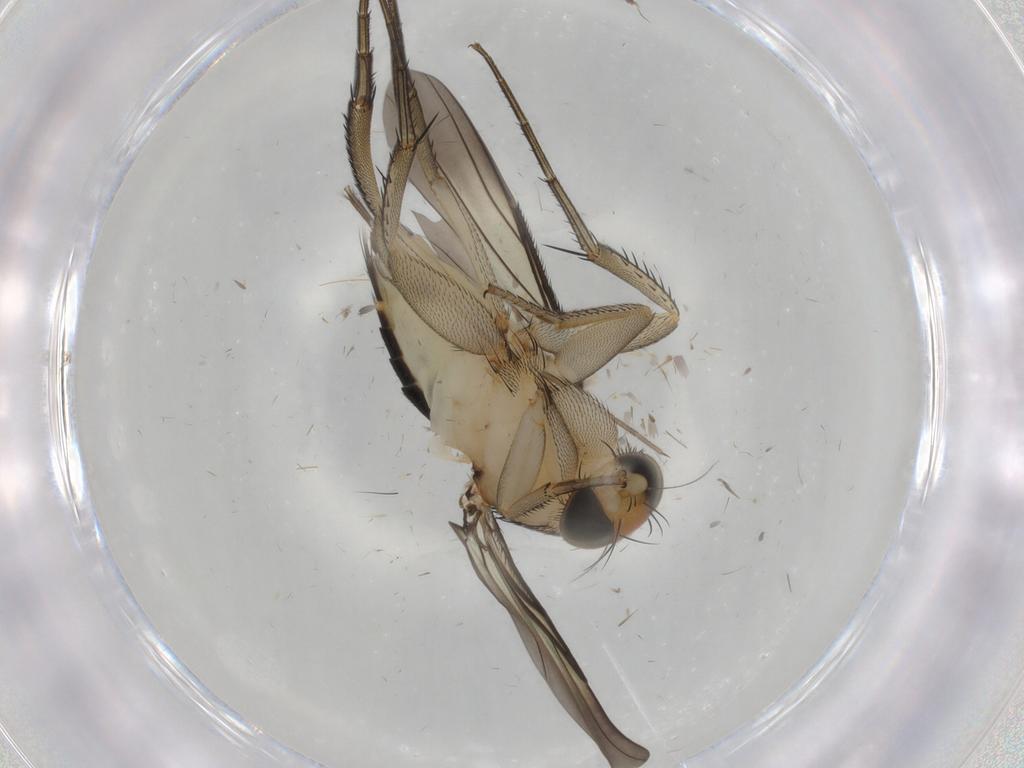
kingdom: Animalia
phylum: Arthropoda
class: Insecta
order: Diptera
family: Phoridae
